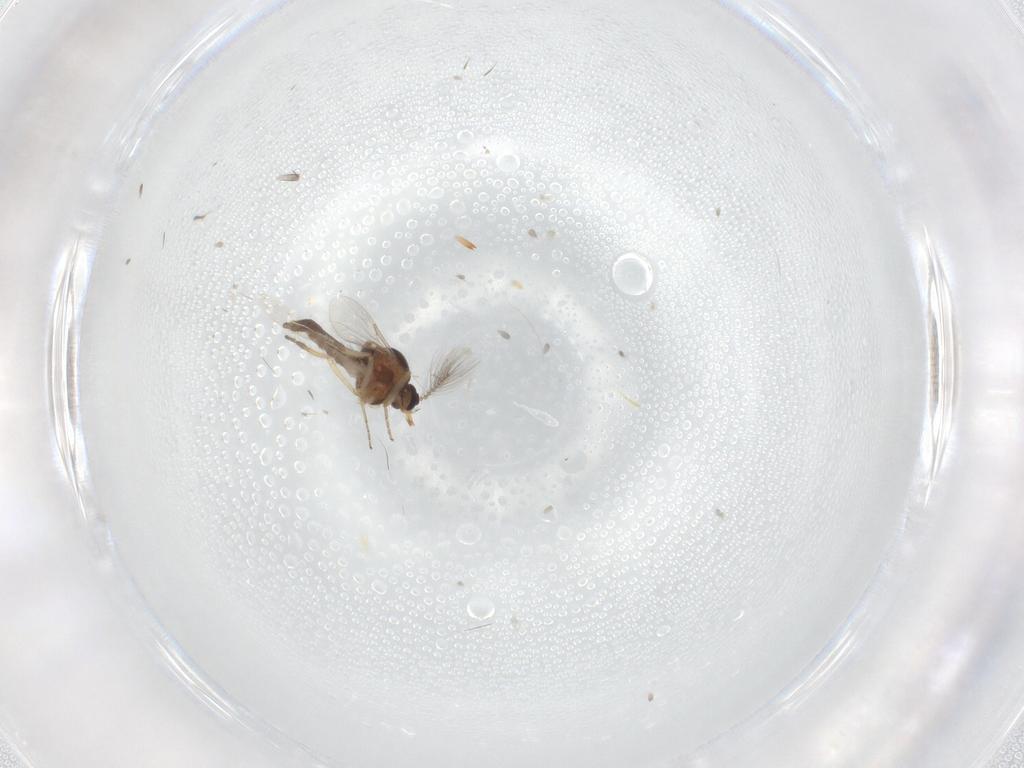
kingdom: Animalia
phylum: Arthropoda
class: Insecta
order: Diptera
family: Ceratopogonidae
